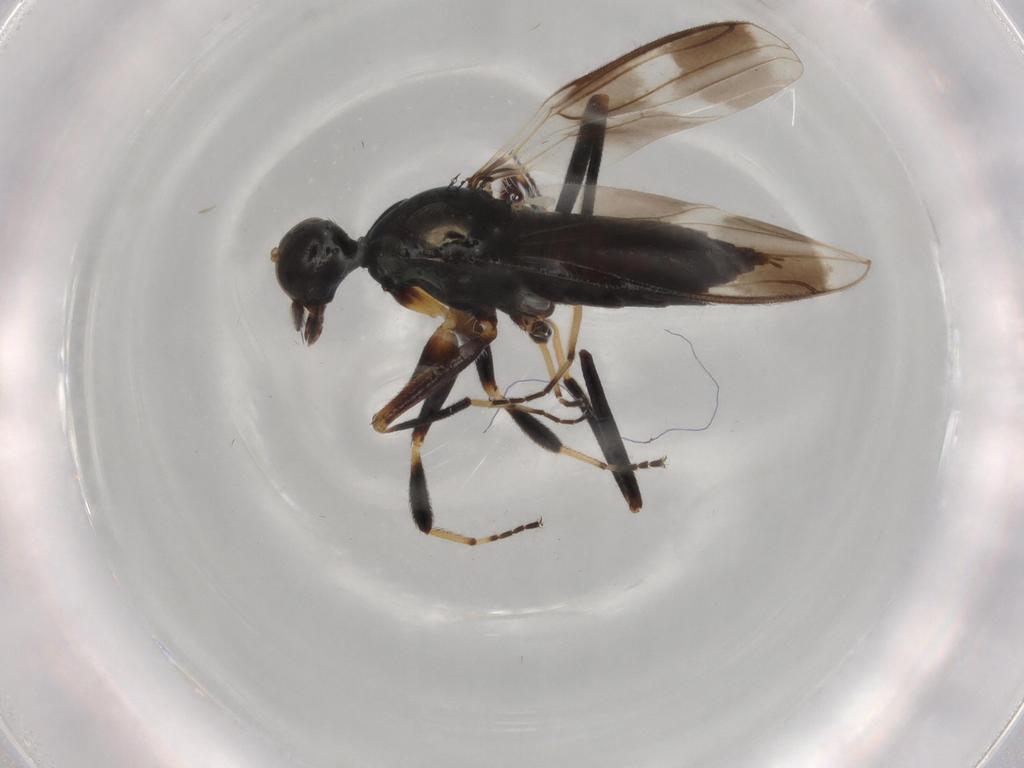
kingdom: Animalia
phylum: Arthropoda
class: Insecta
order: Diptera
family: Hybotidae
